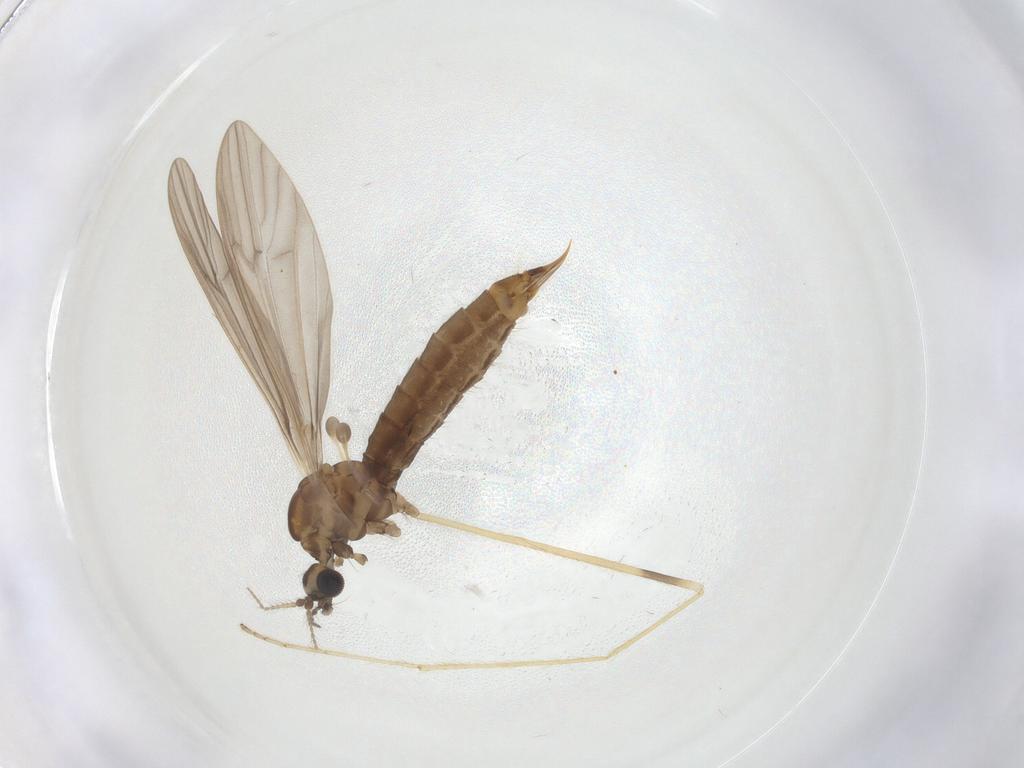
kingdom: Animalia
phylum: Arthropoda
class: Insecta
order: Diptera
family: Limoniidae
